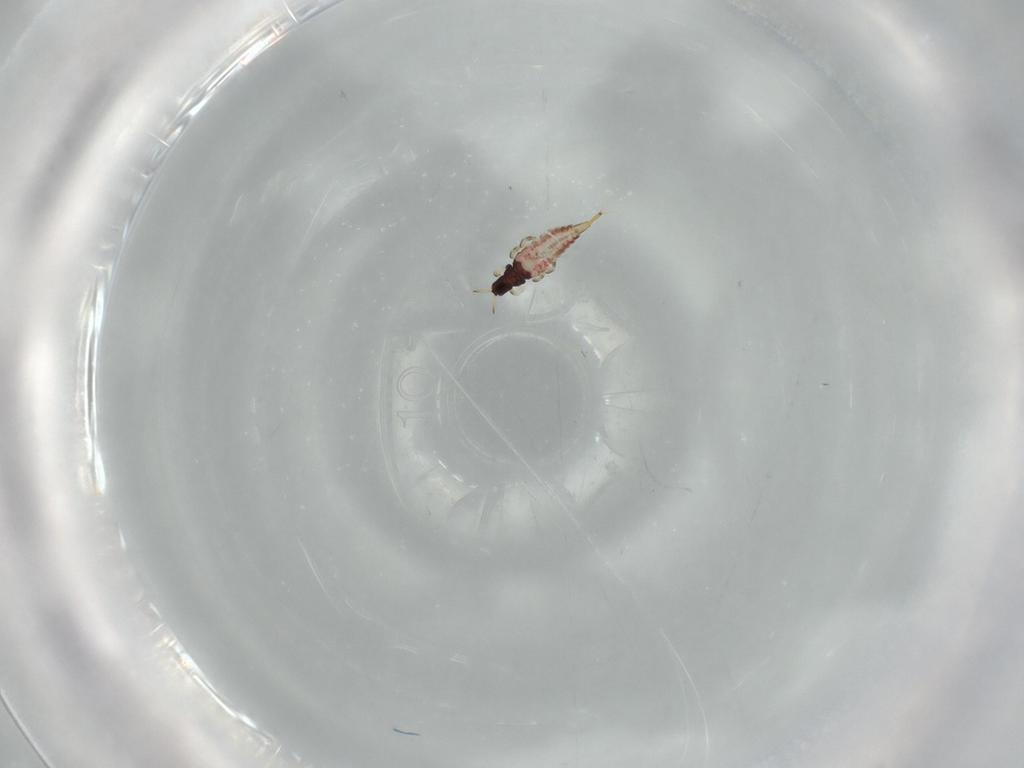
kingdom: Animalia
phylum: Arthropoda
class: Insecta
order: Thysanoptera
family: Phlaeothripidae
